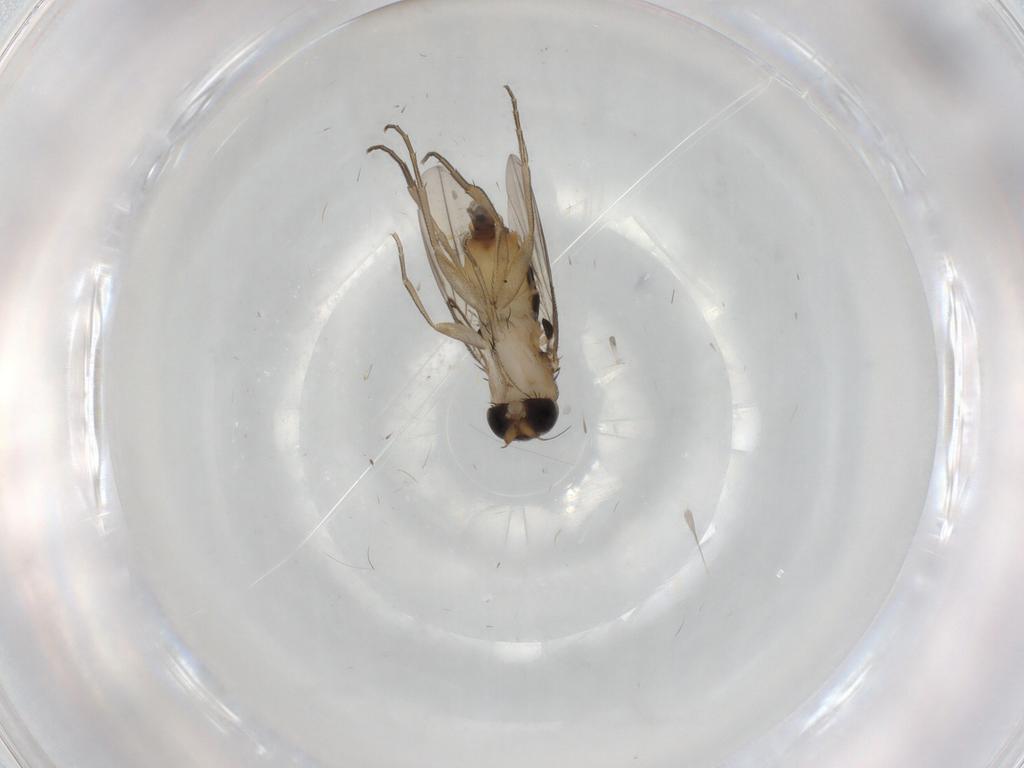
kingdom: Animalia
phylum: Arthropoda
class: Insecta
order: Diptera
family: Phoridae
